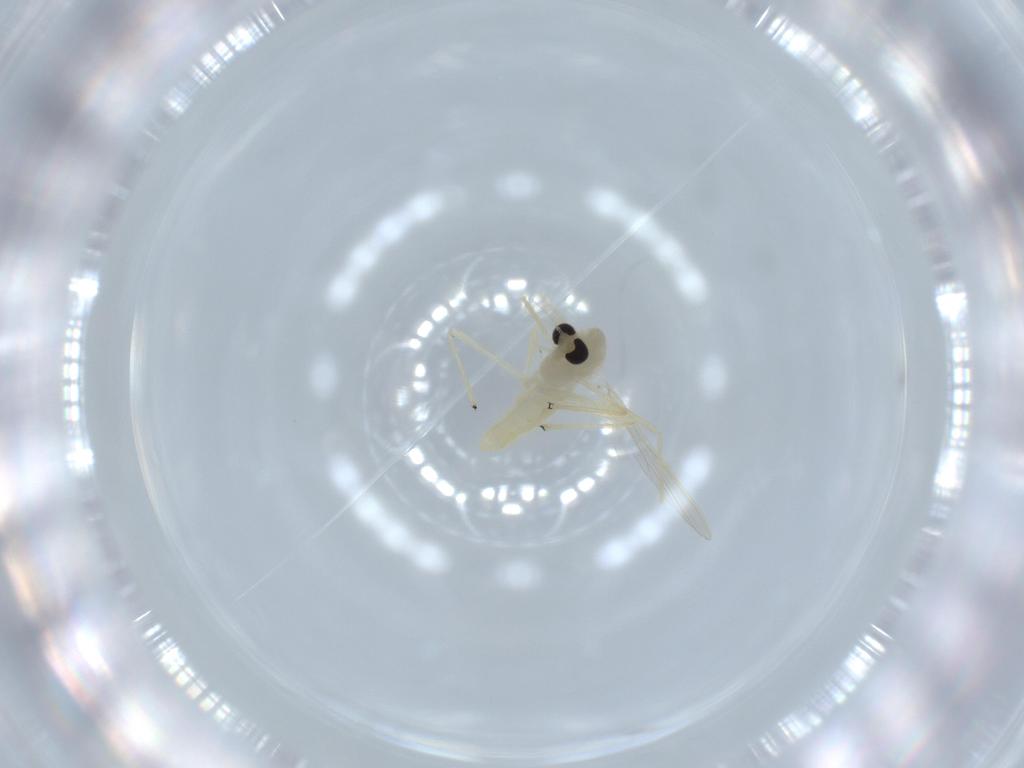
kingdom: Animalia
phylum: Arthropoda
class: Insecta
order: Diptera
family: Chironomidae
